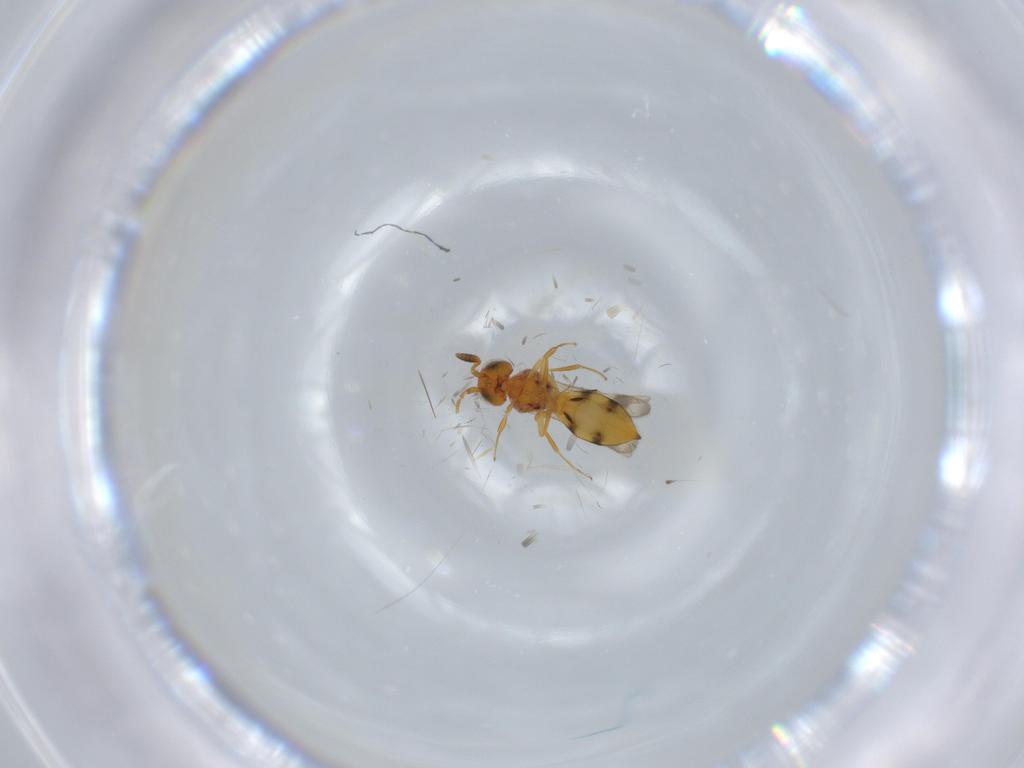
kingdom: Animalia
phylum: Arthropoda
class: Insecta
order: Hymenoptera
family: Scelionidae
